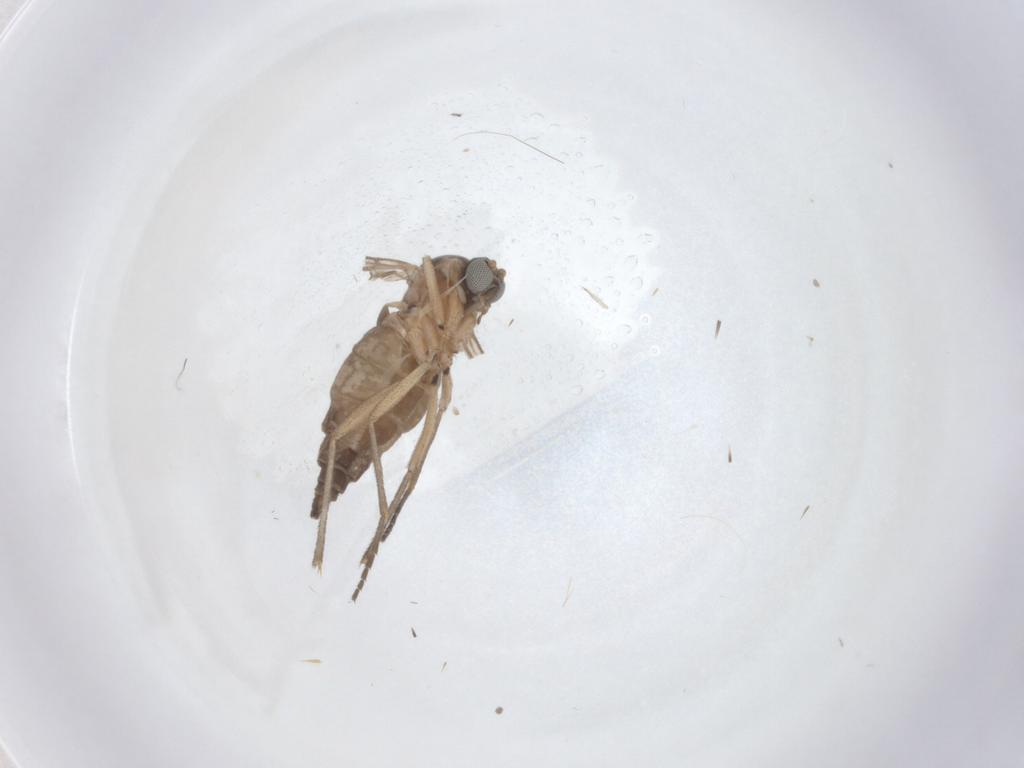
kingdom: Animalia
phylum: Arthropoda
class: Insecta
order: Diptera
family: Sciaridae
